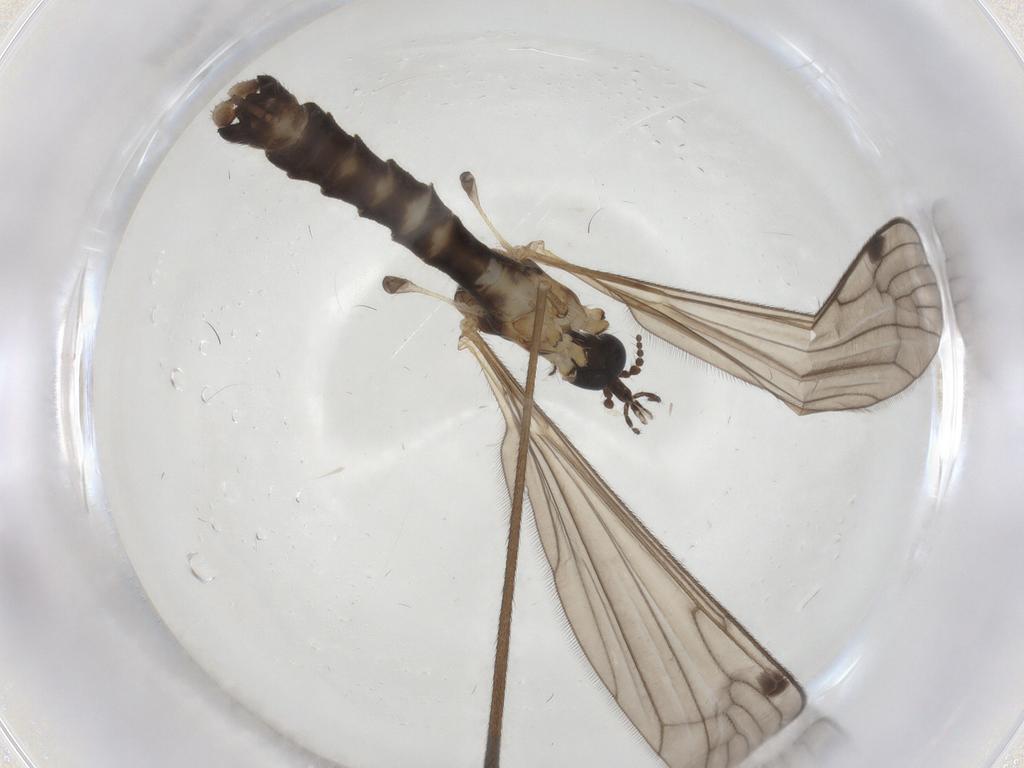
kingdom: Animalia
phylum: Arthropoda
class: Insecta
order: Diptera
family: Limoniidae
